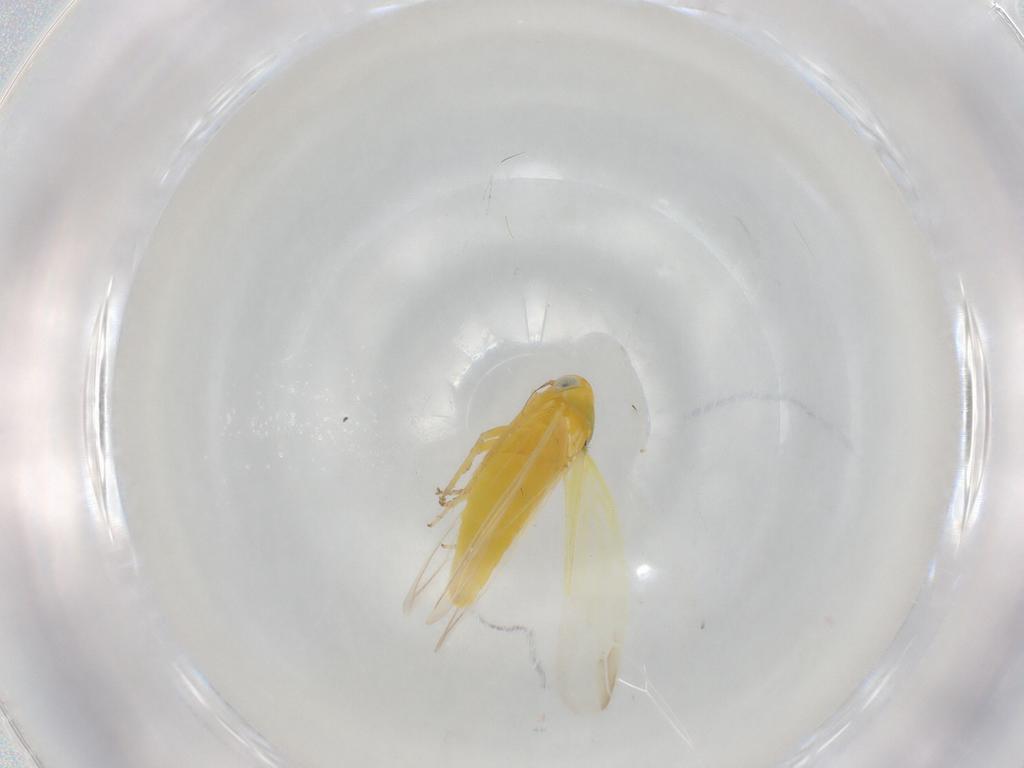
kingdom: Animalia
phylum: Arthropoda
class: Insecta
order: Hemiptera
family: Cicadellidae
